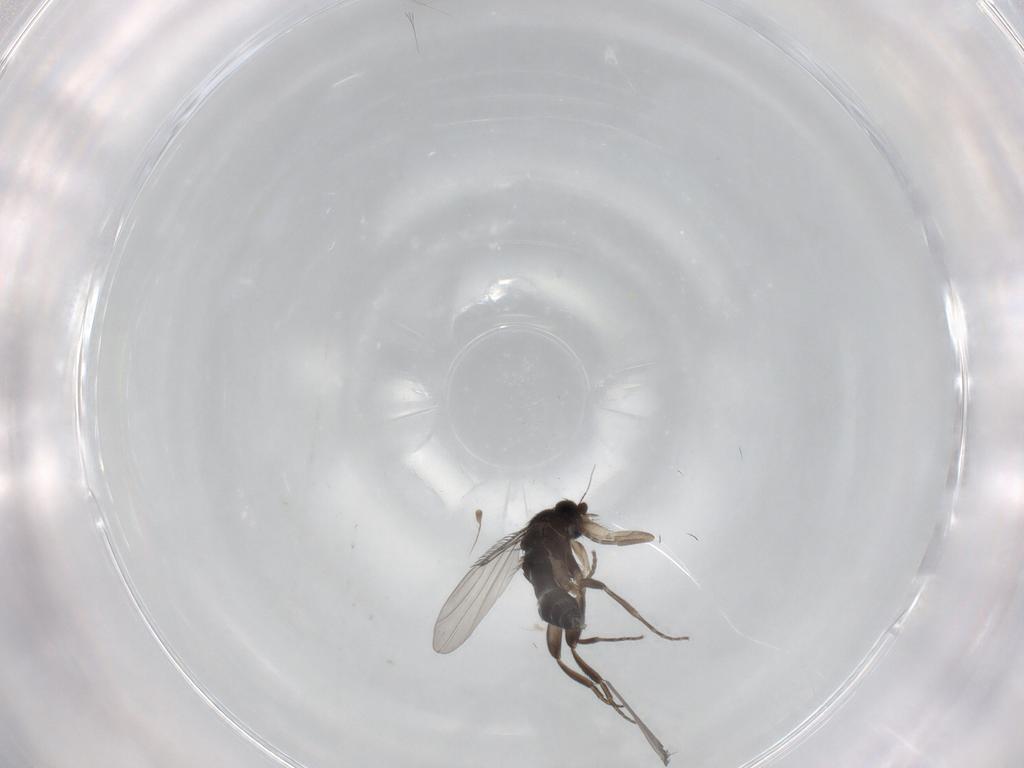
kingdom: Animalia
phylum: Arthropoda
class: Insecta
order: Diptera
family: Phoridae
